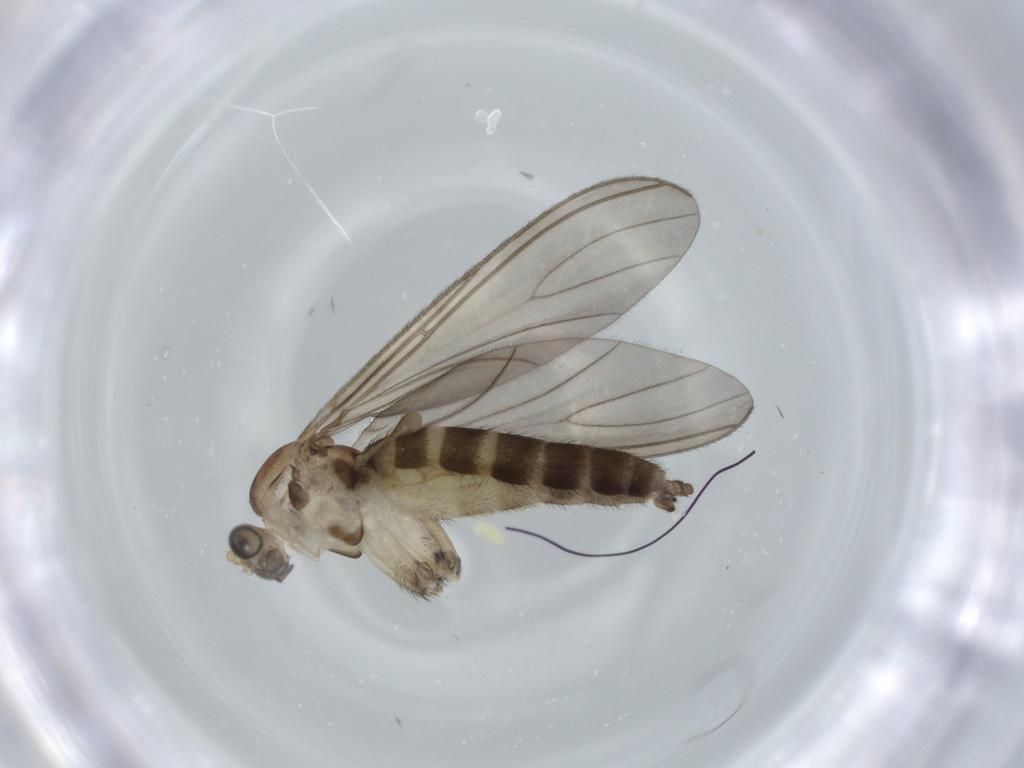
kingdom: Animalia
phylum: Arthropoda
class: Insecta
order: Diptera
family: Sciaridae
